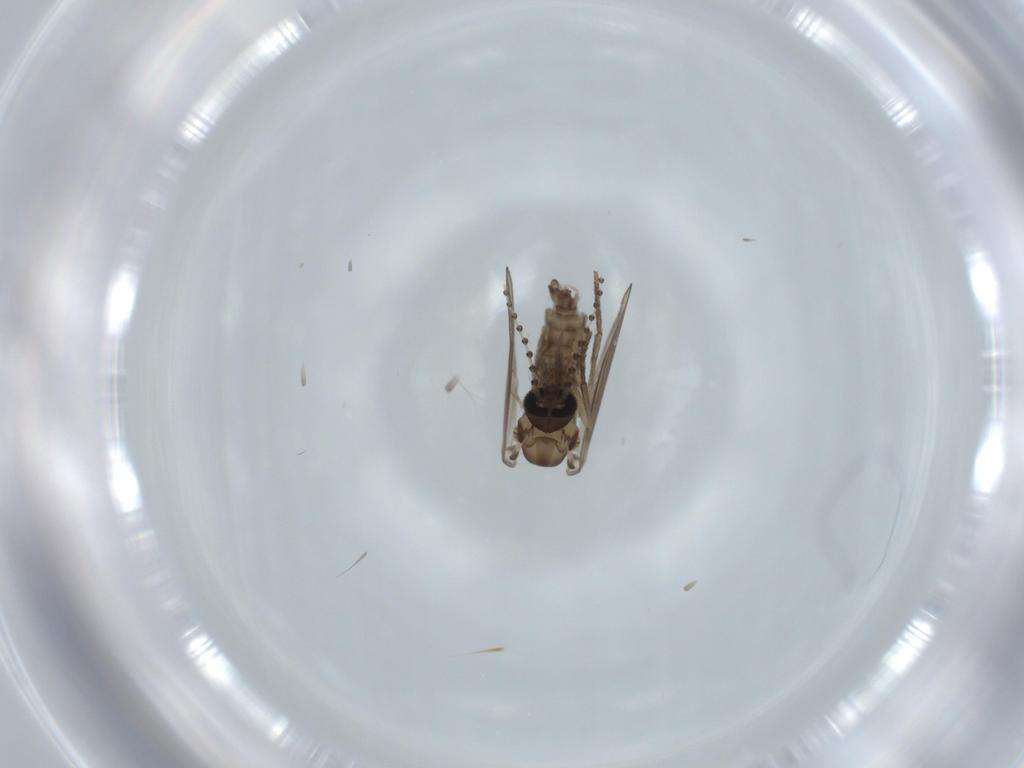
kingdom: Animalia
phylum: Arthropoda
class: Insecta
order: Diptera
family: Psychodidae
